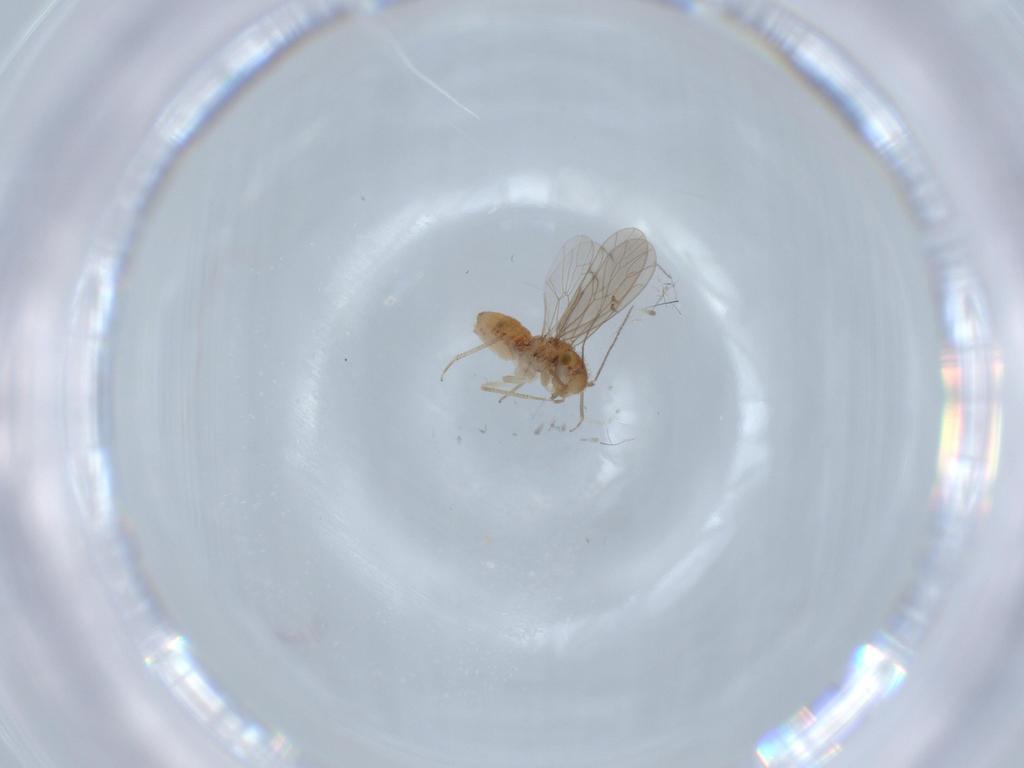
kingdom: Animalia
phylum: Arthropoda
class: Insecta
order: Psocodea
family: Ectopsocidae
